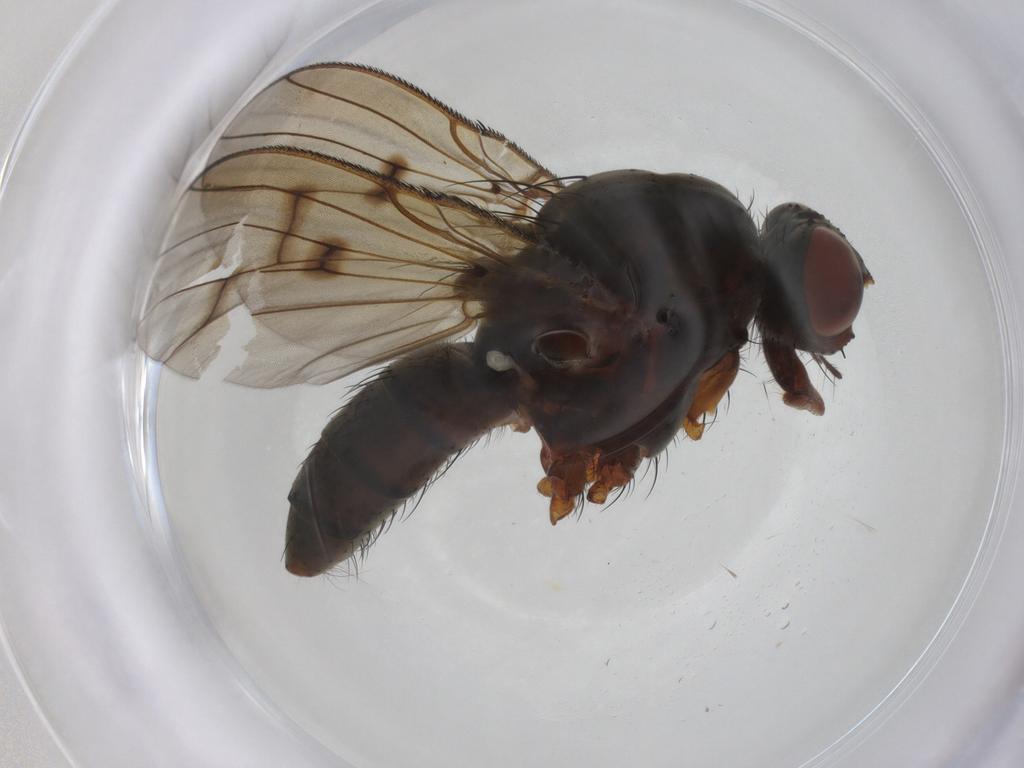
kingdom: Animalia
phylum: Arthropoda
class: Insecta
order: Diptera
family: Anthomyiidae
